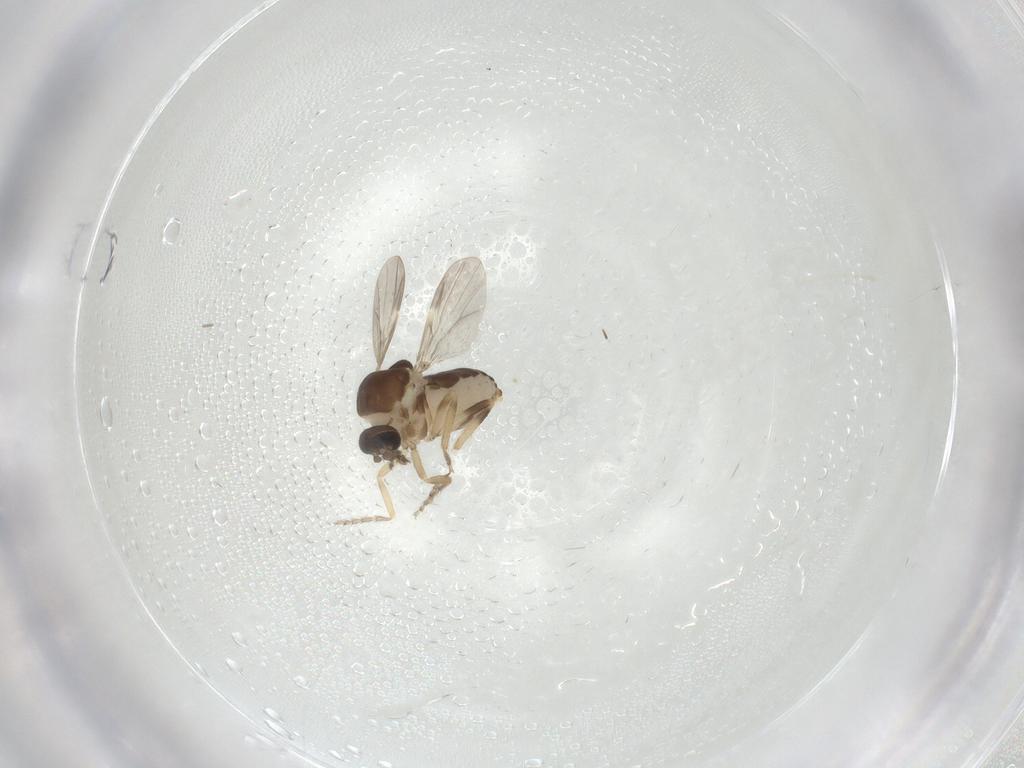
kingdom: Animalia
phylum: Arthropoda
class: Insecta
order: Diptera
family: Ceratopogonidae
